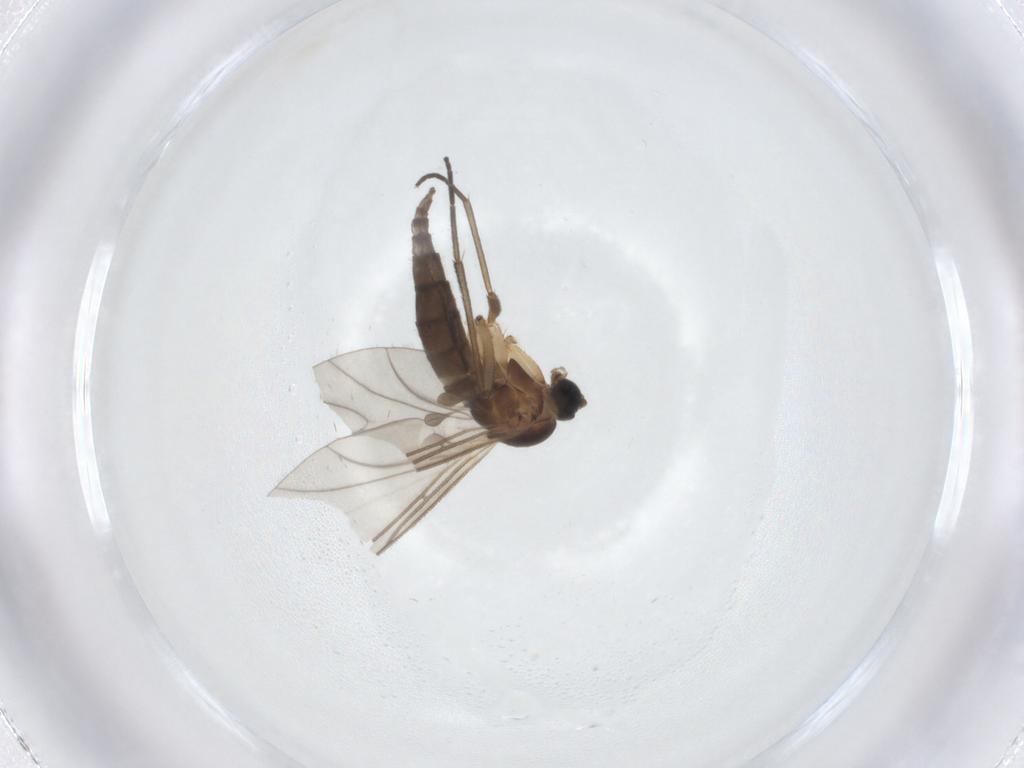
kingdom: Animalia
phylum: Arthropoda
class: Insecta
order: Diptera
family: Sciaridae
